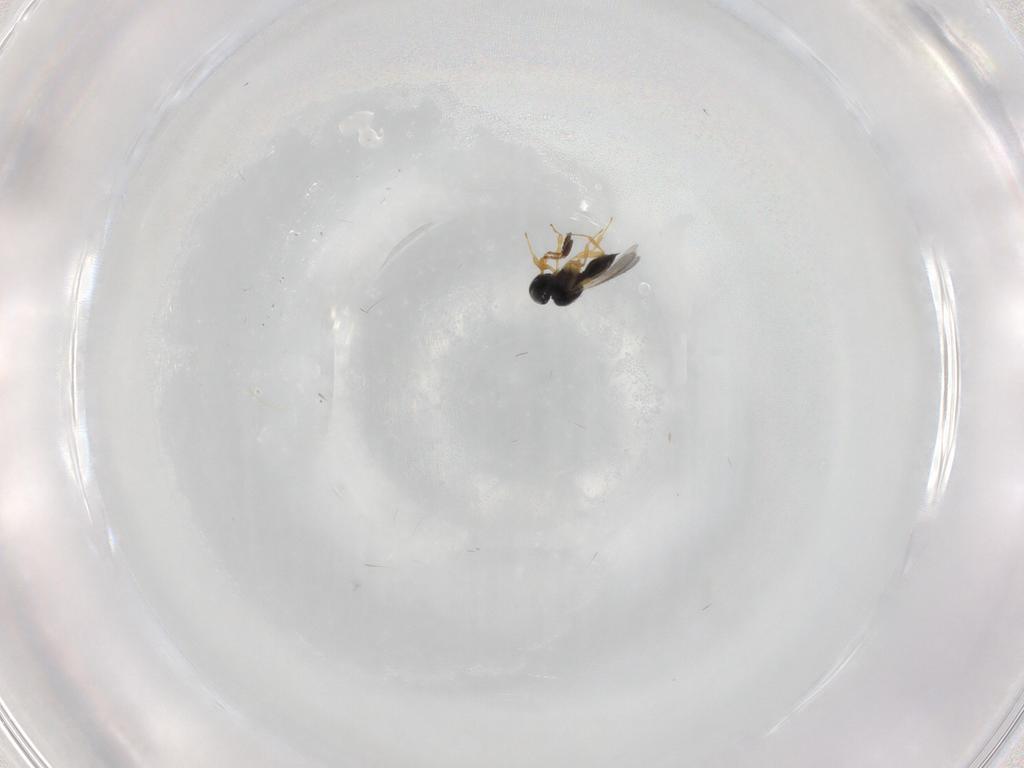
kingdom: Animalia
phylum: Arthropoda
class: Insecta
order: Hymenoptera
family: Scelionidae
